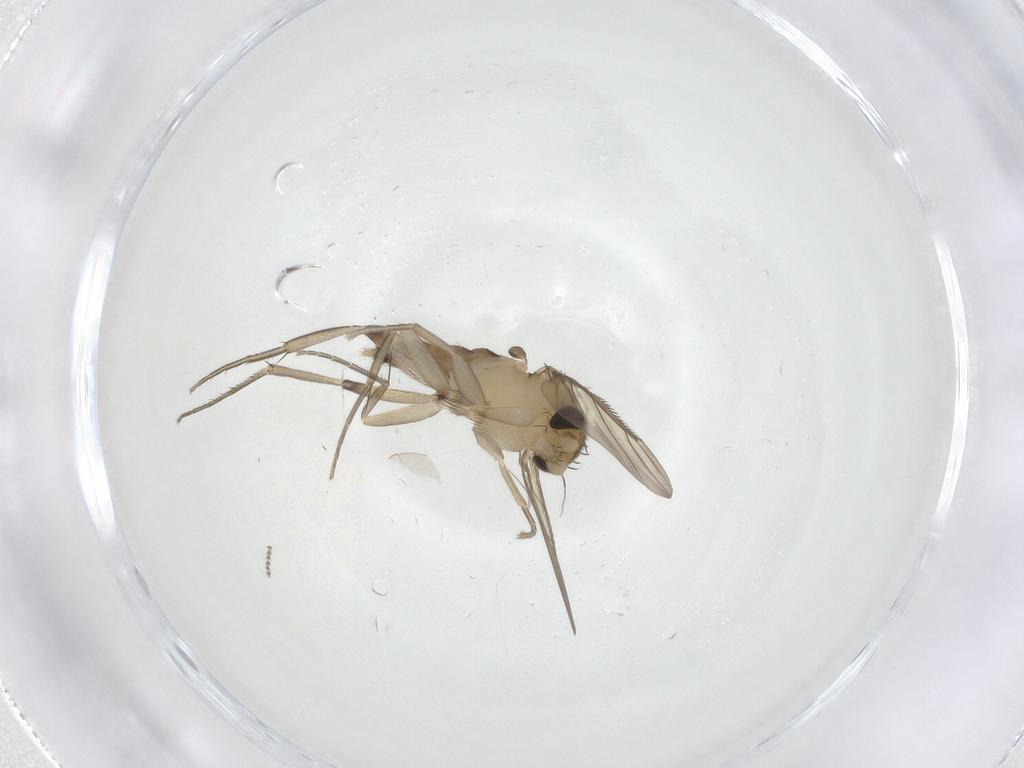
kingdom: Animalia
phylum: Arthropoda
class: Insecta
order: Diptera
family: Phoridae
